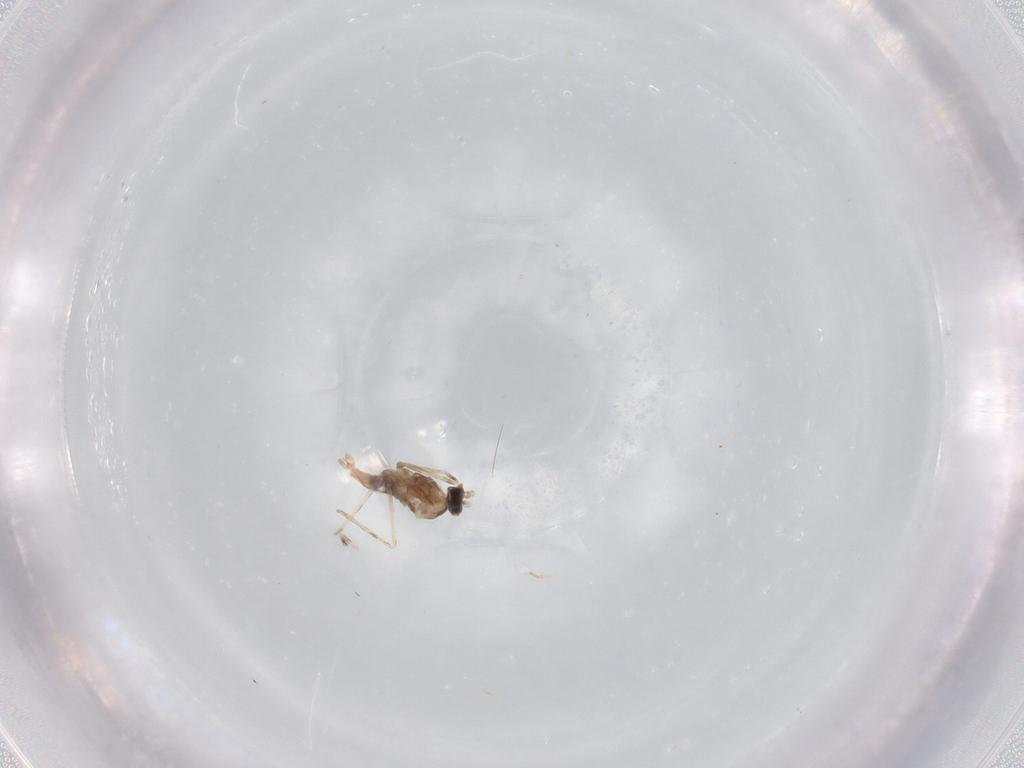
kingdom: Animalia
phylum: Arthropoda
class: Insecta
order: Diptera
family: Cecidomyiidae
